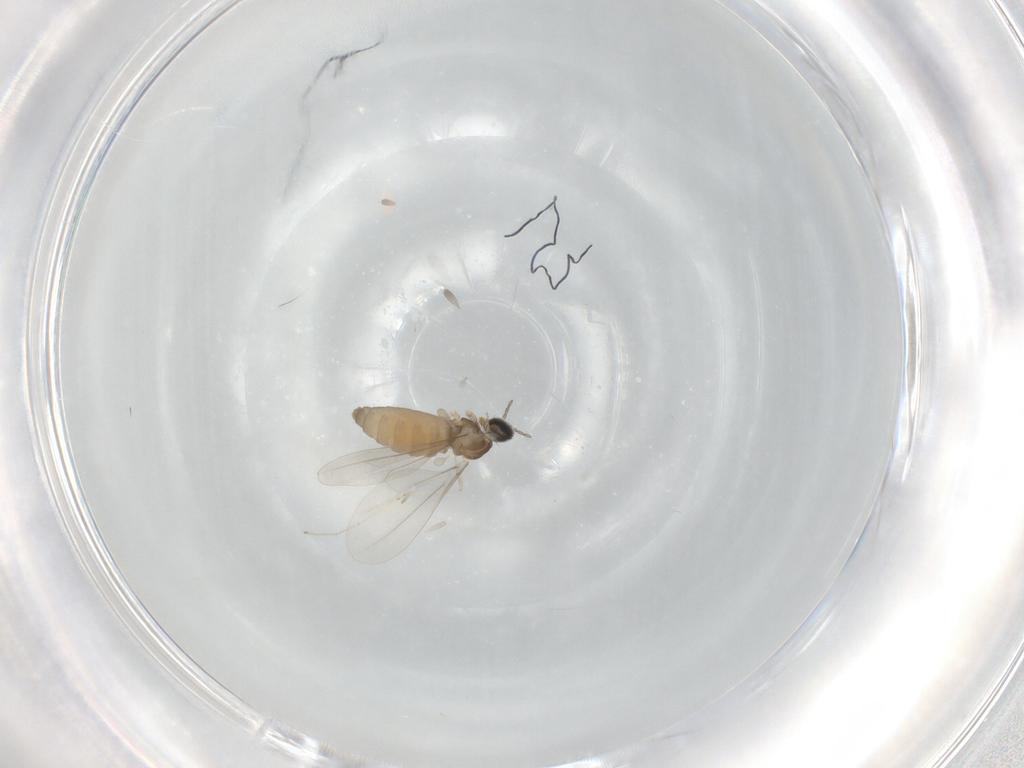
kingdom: Animalia
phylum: Arthropoda
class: Insecta
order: Diptera
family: Cecidomyiidae
